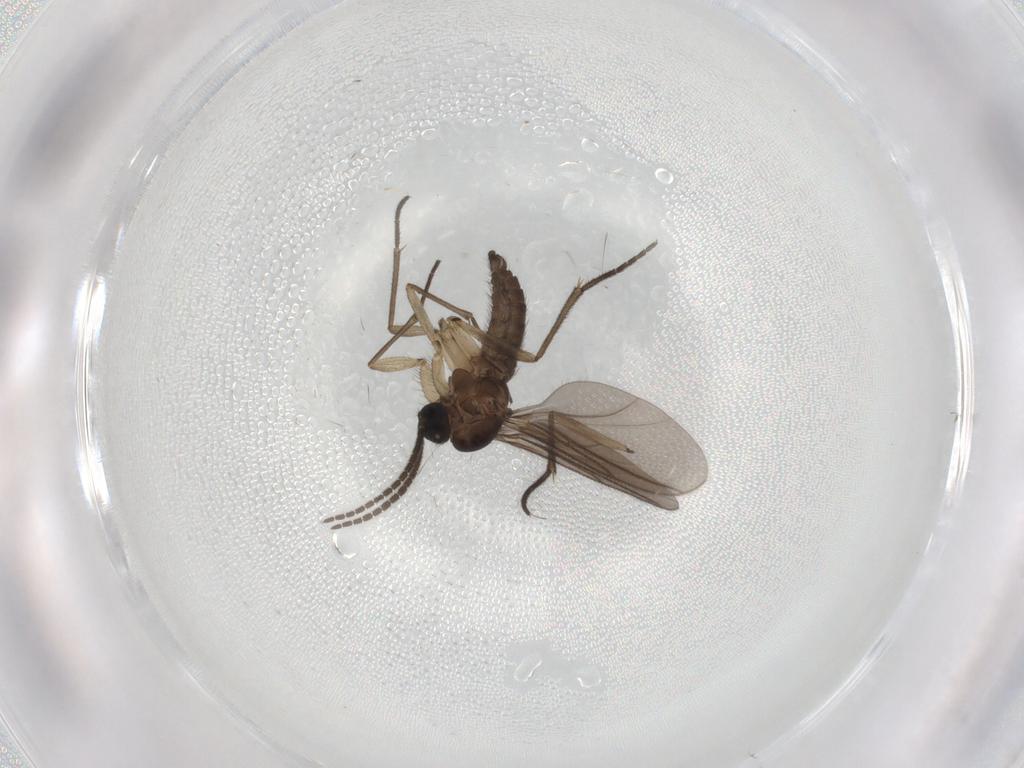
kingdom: Animalia
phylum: Arthropoda
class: Insecta
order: Diptera
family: Sciaridae
